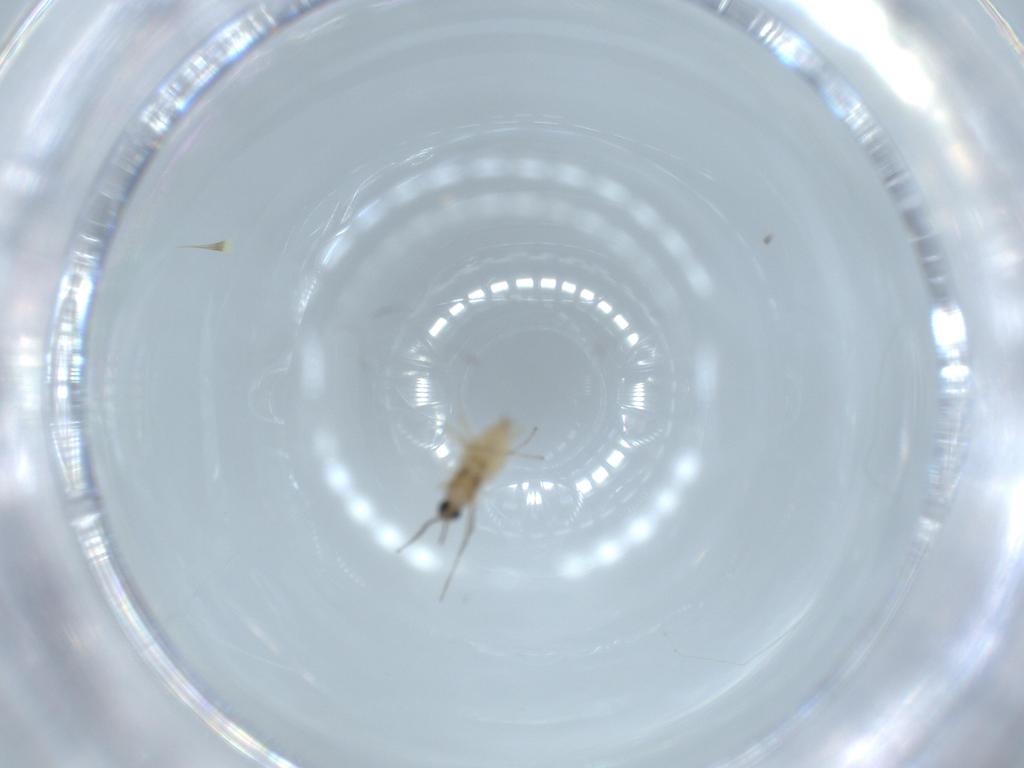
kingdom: Animalia
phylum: Arthropoda
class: Insecta
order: Diptera
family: Cecidomyiidae
